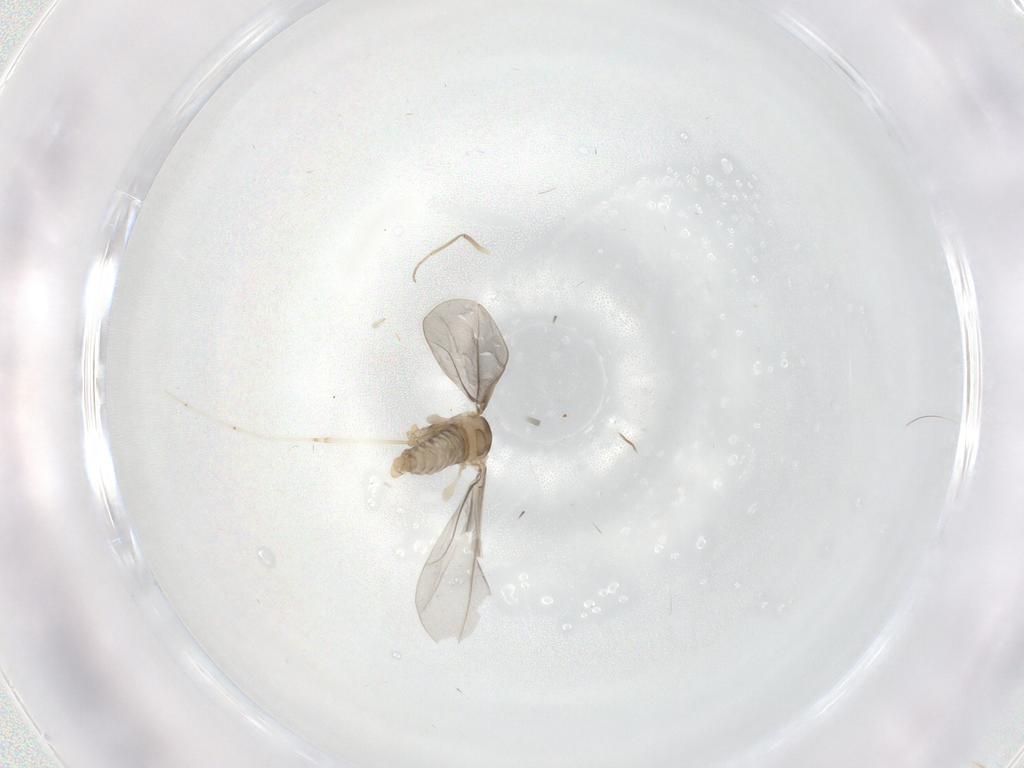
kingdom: Animalia
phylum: Arthropoda
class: Insecta
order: Diptera
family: Cecidomyiidae
